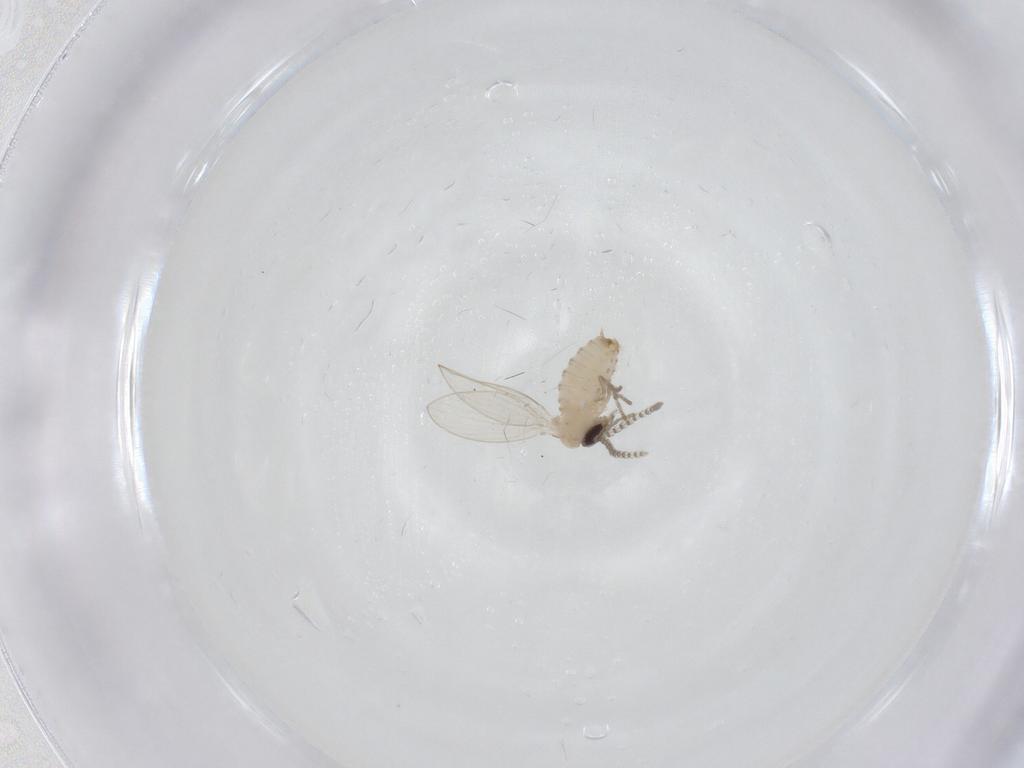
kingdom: Animalia
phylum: Arthropoda
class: Insecta
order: Diptera
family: Psychodidae
